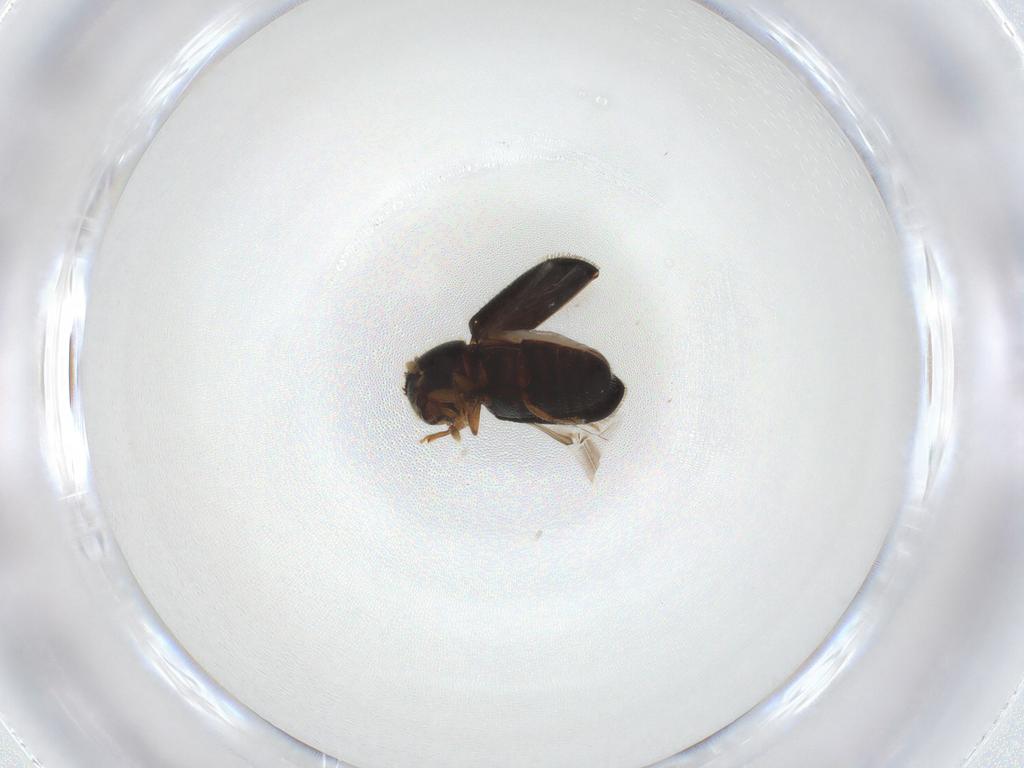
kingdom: Animalia
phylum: Arthropoda
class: Insecta
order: Coleoptera
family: Curculionidae
